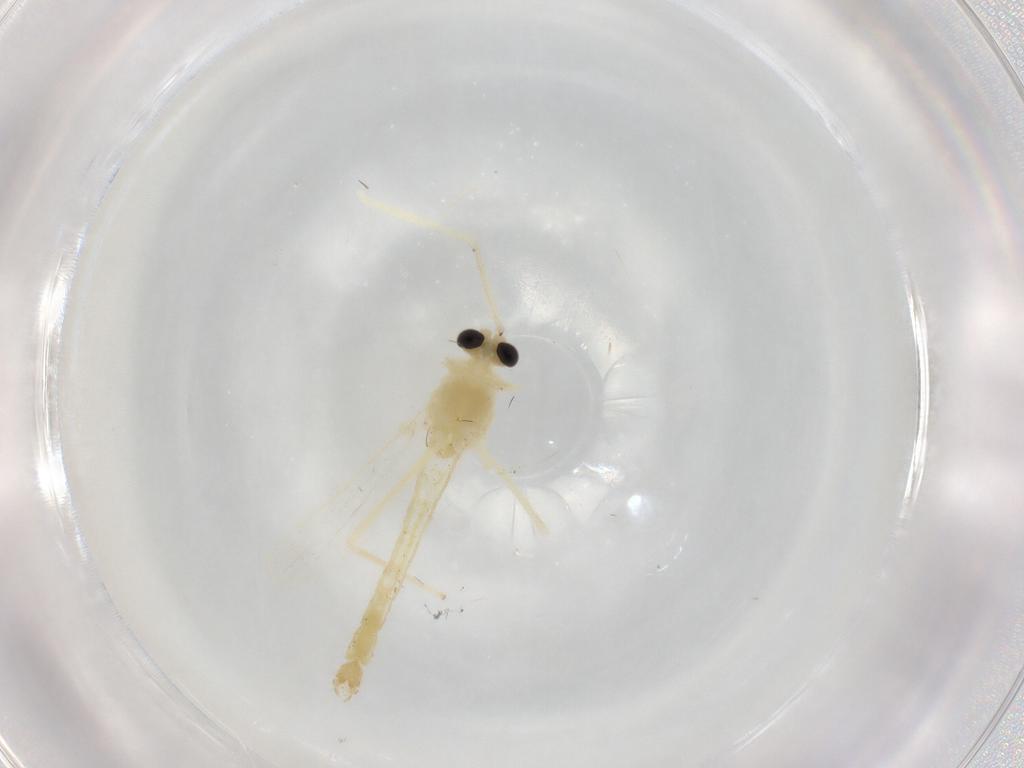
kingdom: Animalia
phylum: Arthropoda
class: Insecta
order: Diptera
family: Chironomidae
